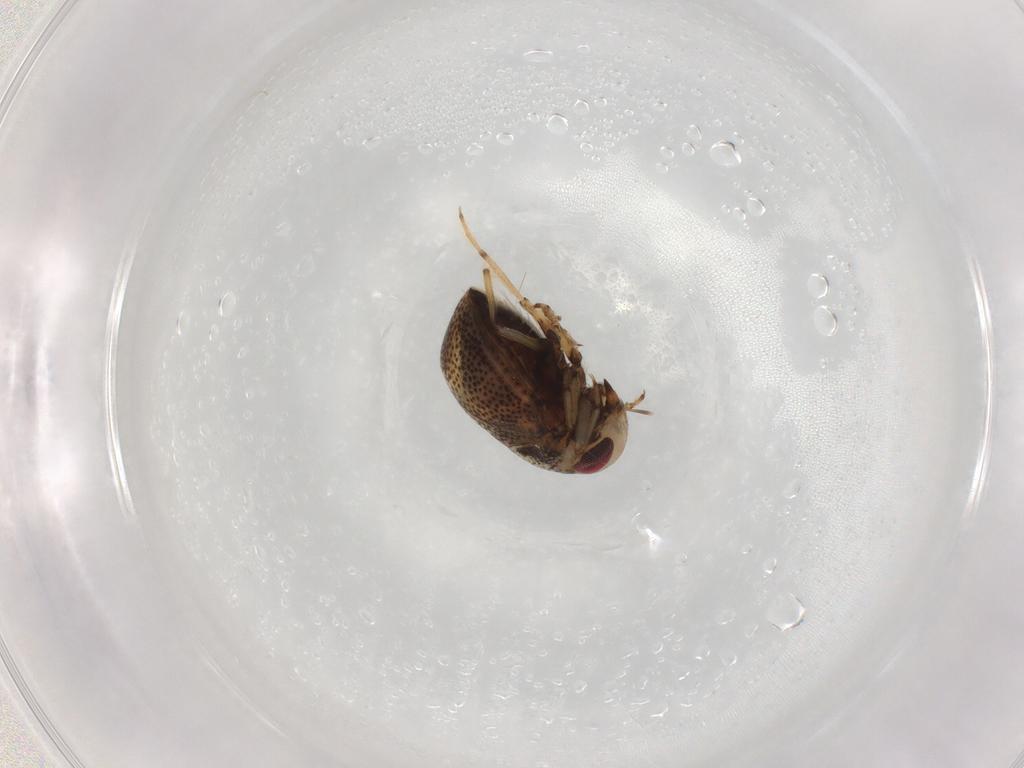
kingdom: Animalia
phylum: Arthropoda
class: Insecta
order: Hemiptera
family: Pleidae
